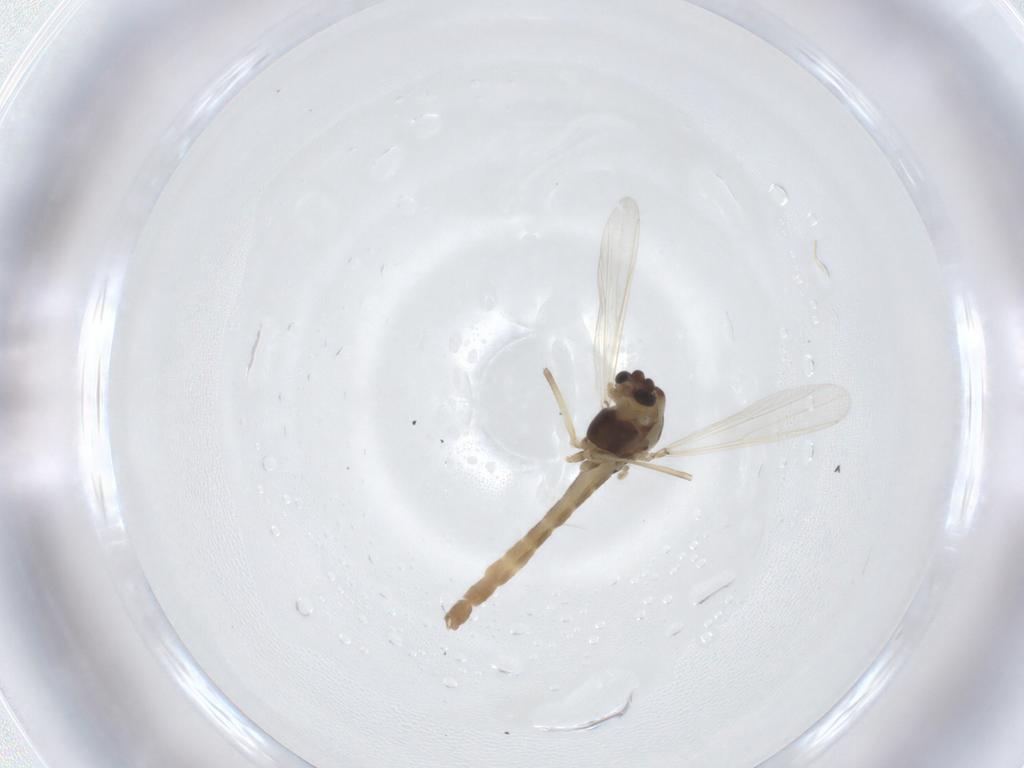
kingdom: Animalia
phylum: Arthropoda
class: Insecta
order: Diptera
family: Chironomidae
